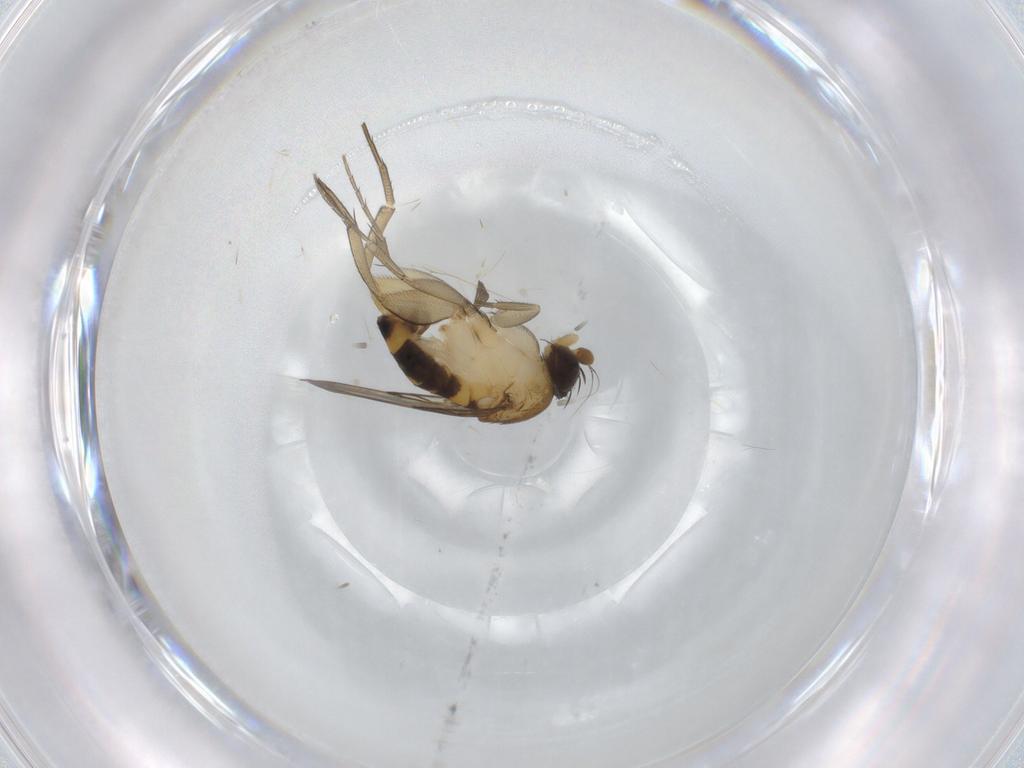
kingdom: Animalia
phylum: Arthropoda
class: Insecta
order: Diptera
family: Phoridae
